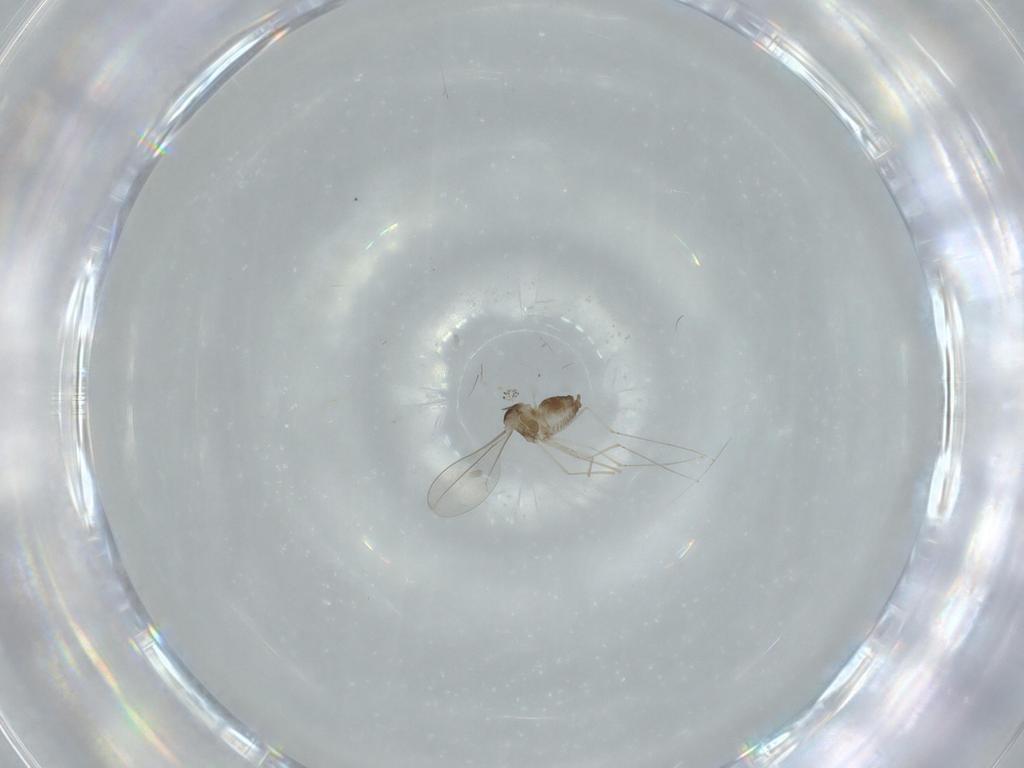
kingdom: Animalia
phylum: Arthropoda
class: Insecta
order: Diptera
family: Cecidomyiidae
